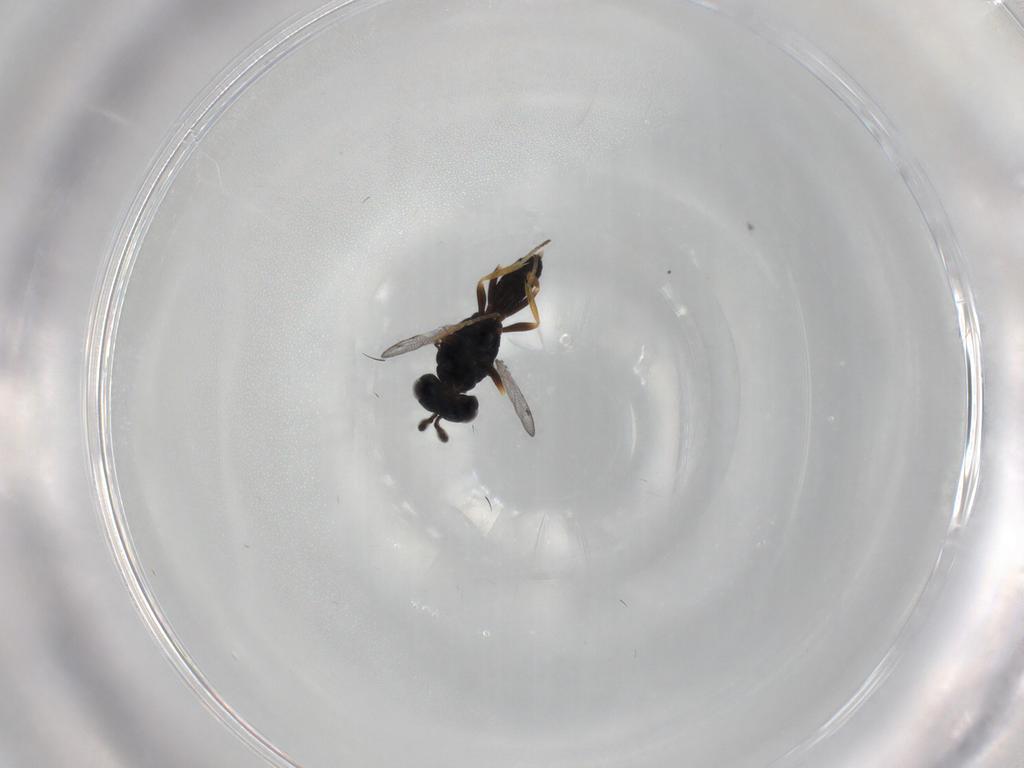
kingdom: Animalia
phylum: Arthropoda
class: Insecta
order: Hymenoptera
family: Pteromalidae
